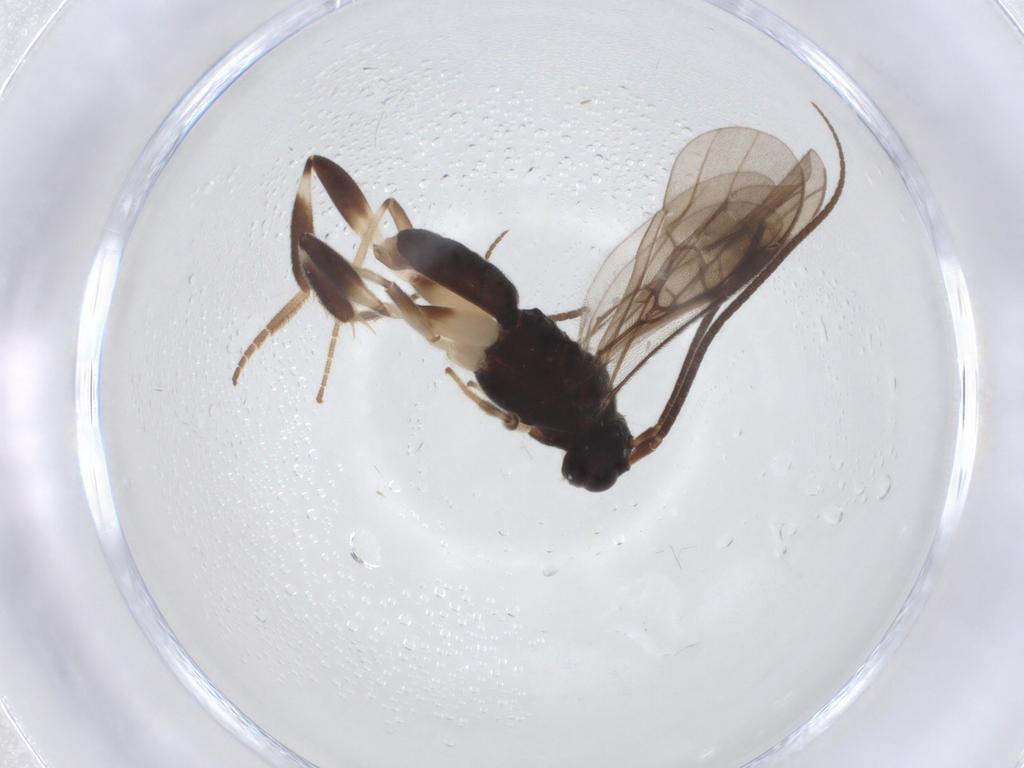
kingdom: Animalia
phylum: Arthropoda
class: Insecta
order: Hymenoptera
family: Braconidae
